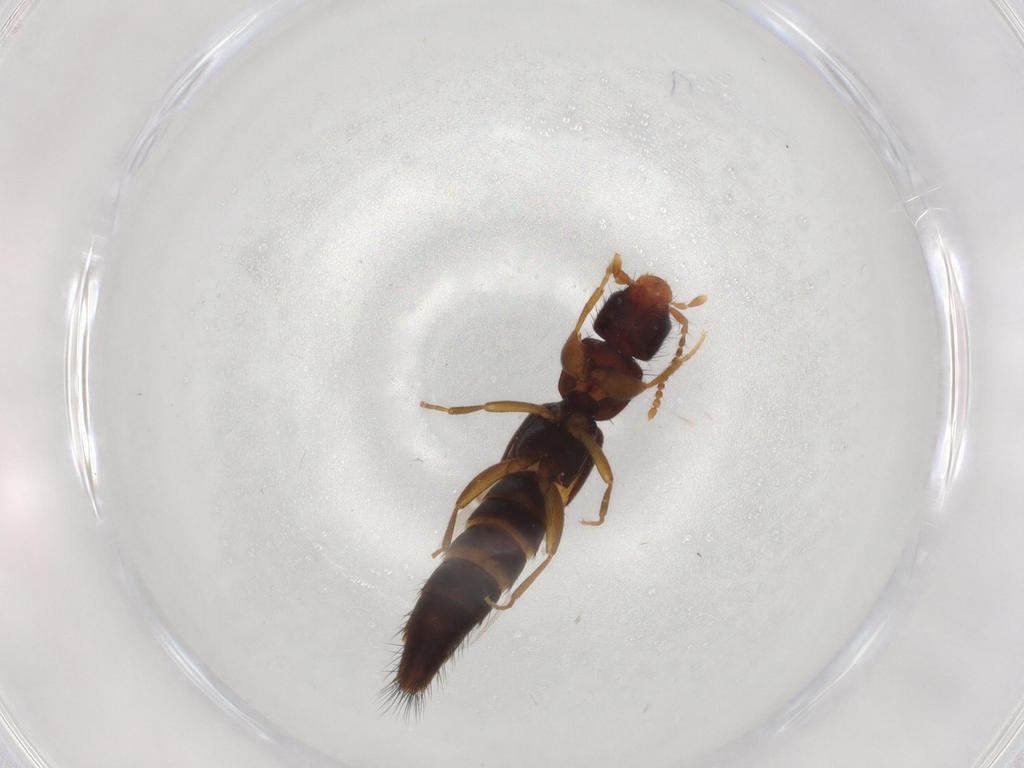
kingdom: Animalia
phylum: Arthropoda
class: Insecta
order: Coleoptera
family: Staphylinidae
